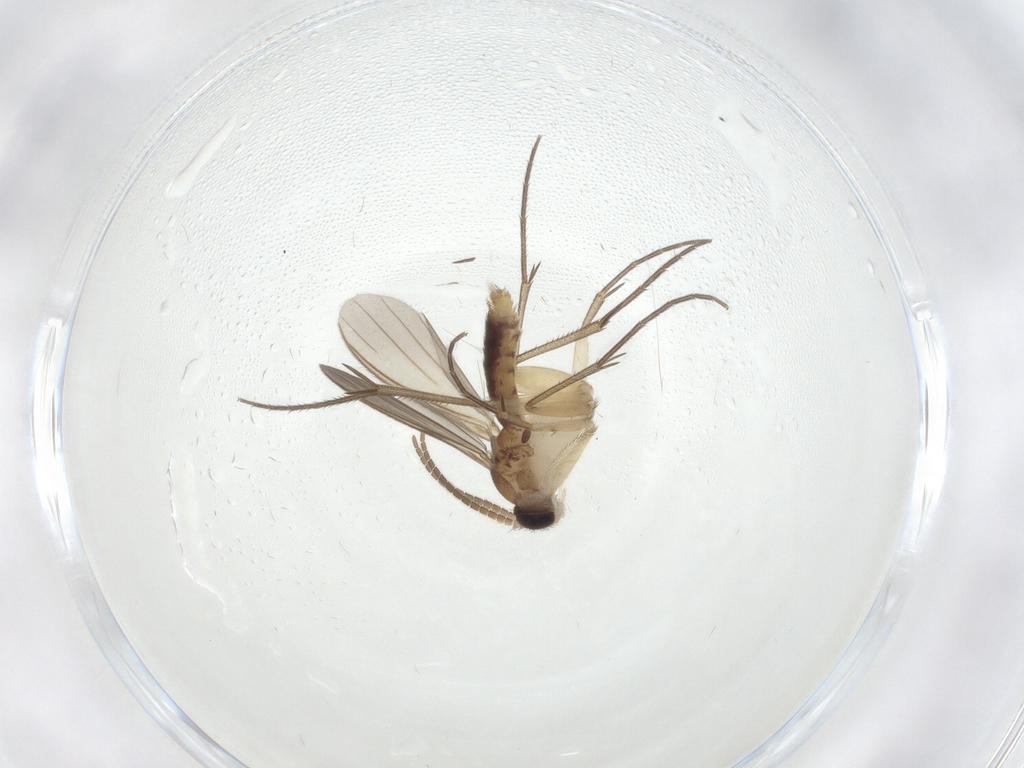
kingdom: Animalia
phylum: Arthropoda
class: Insecta
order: Diptera
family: Mycetophilidae
